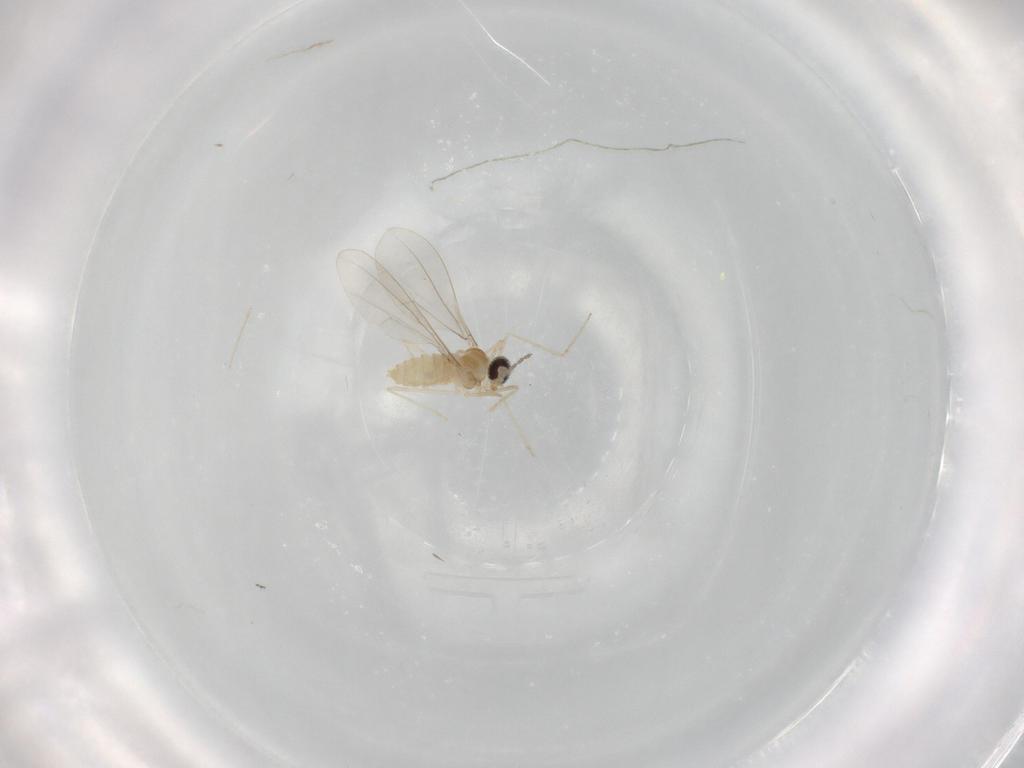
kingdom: Animalia
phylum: Arthropoda
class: Insecta
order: Diptera
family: Cecidomyiidae
